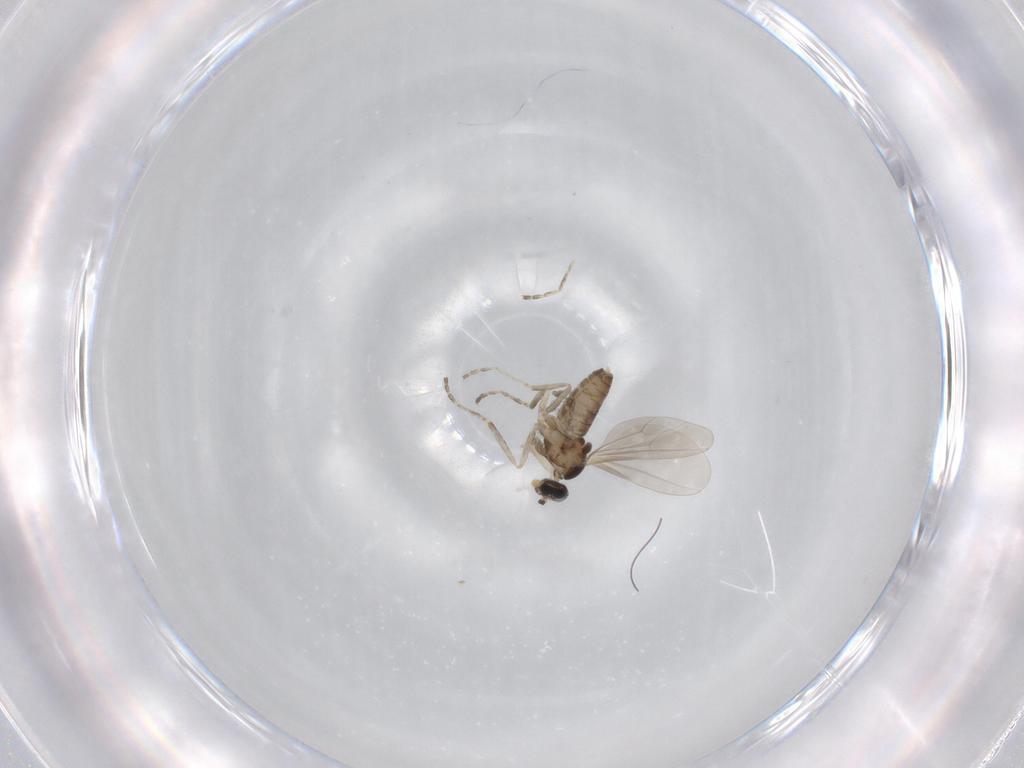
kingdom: Animalia
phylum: Arthropoda
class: Insecta
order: Diptera
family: Cecidomyiidae
